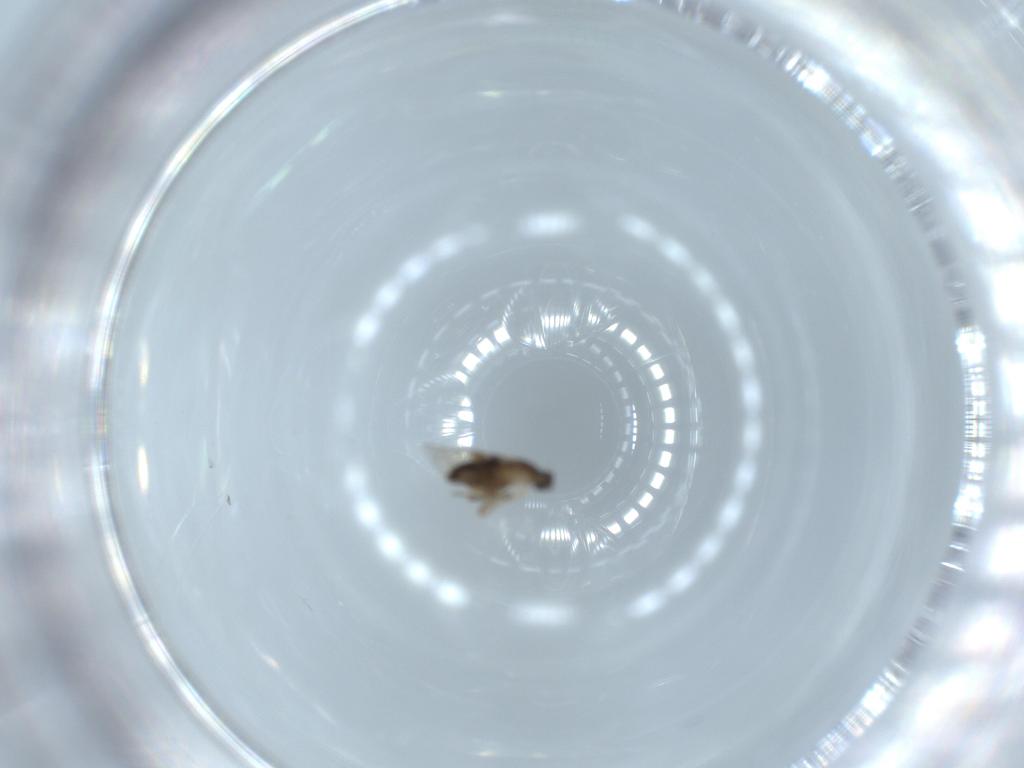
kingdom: Animalia
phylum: Arthropoda
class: Insecta
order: Diptera
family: Phoridae
